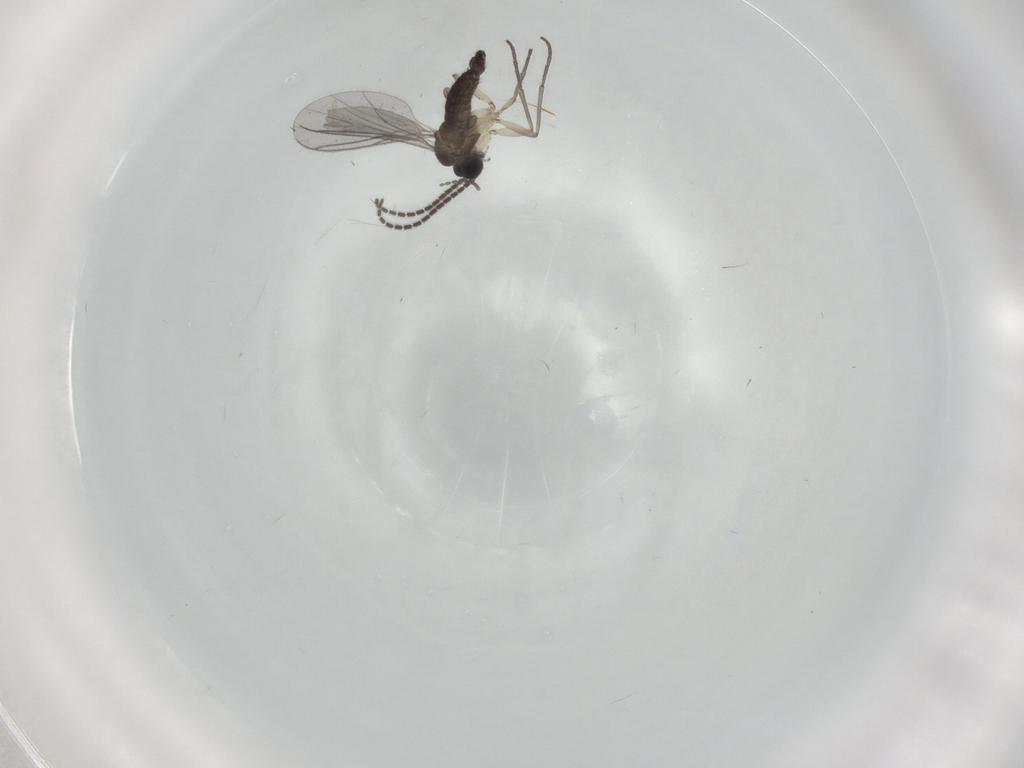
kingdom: Animalia
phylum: Arthropoda
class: Insecta
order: Diptera
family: Sciaridae
